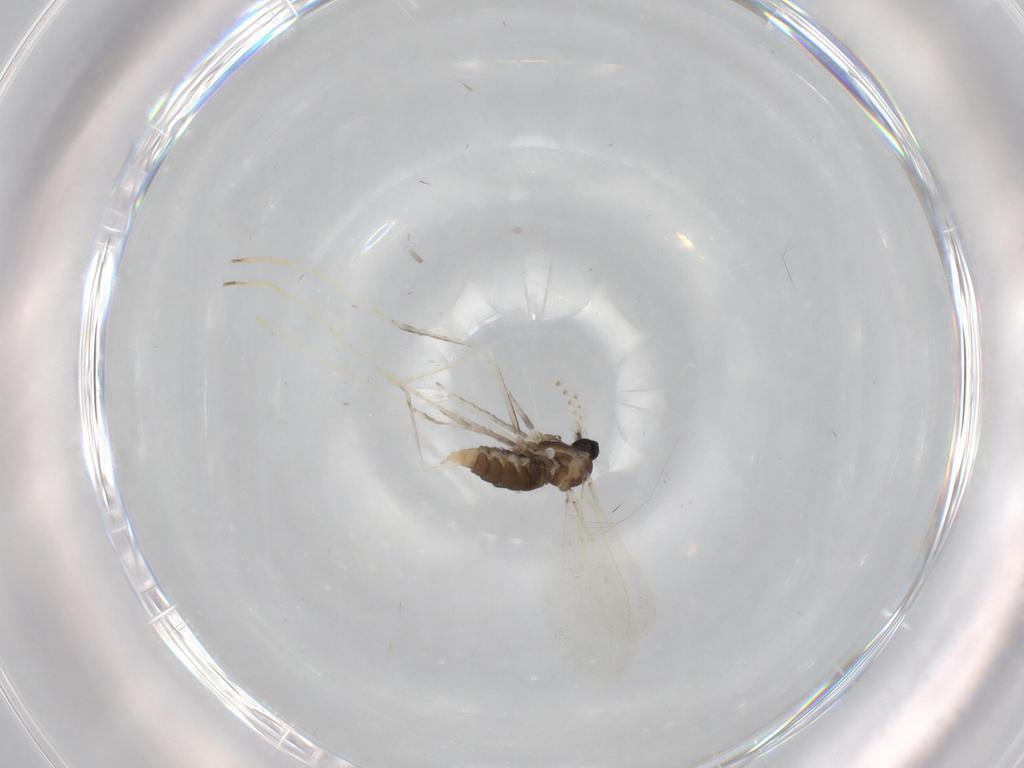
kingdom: Animalia
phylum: Arthropoda
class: Insecta
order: Diptera
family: Cecidomyiidae
